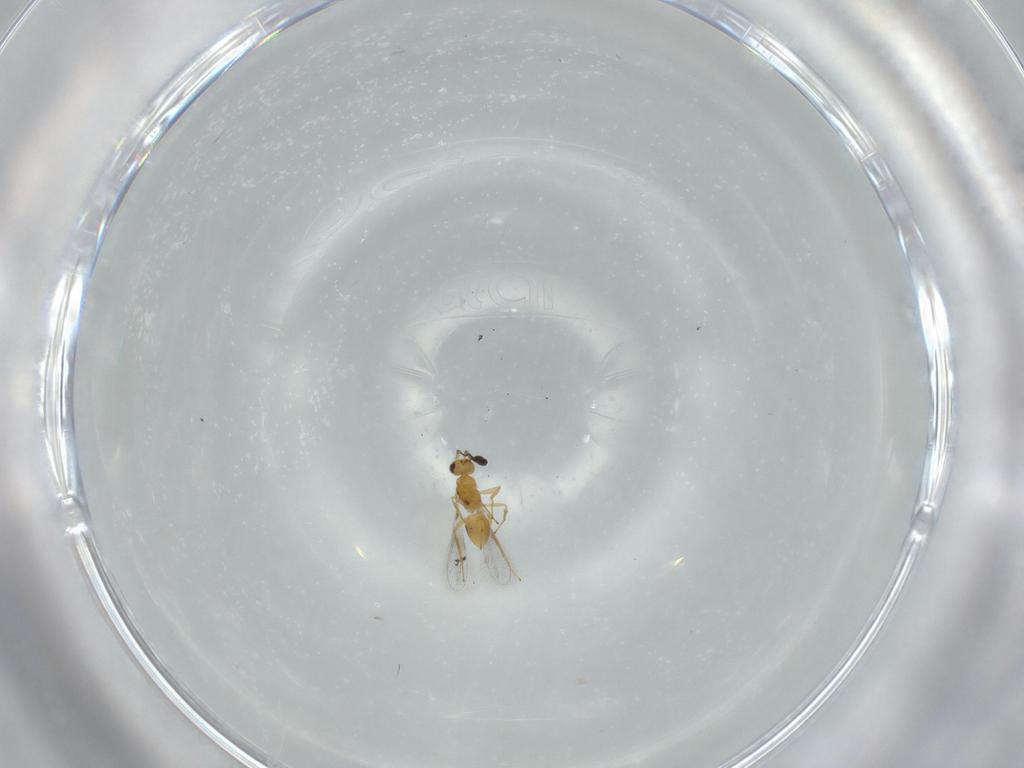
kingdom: Animalia
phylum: Arthropoda
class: Insecta
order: Hymenoptera
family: Mymaridae
